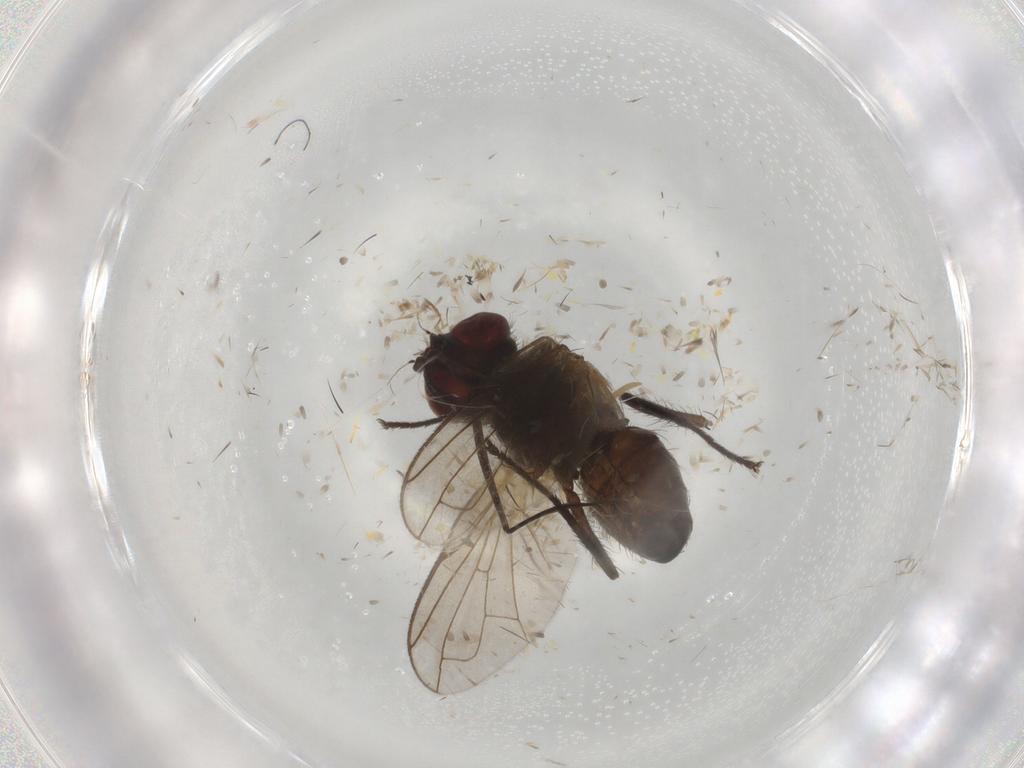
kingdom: Animalia
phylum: Arthropoda
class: Insecta
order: Diptera
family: Tachinidae
